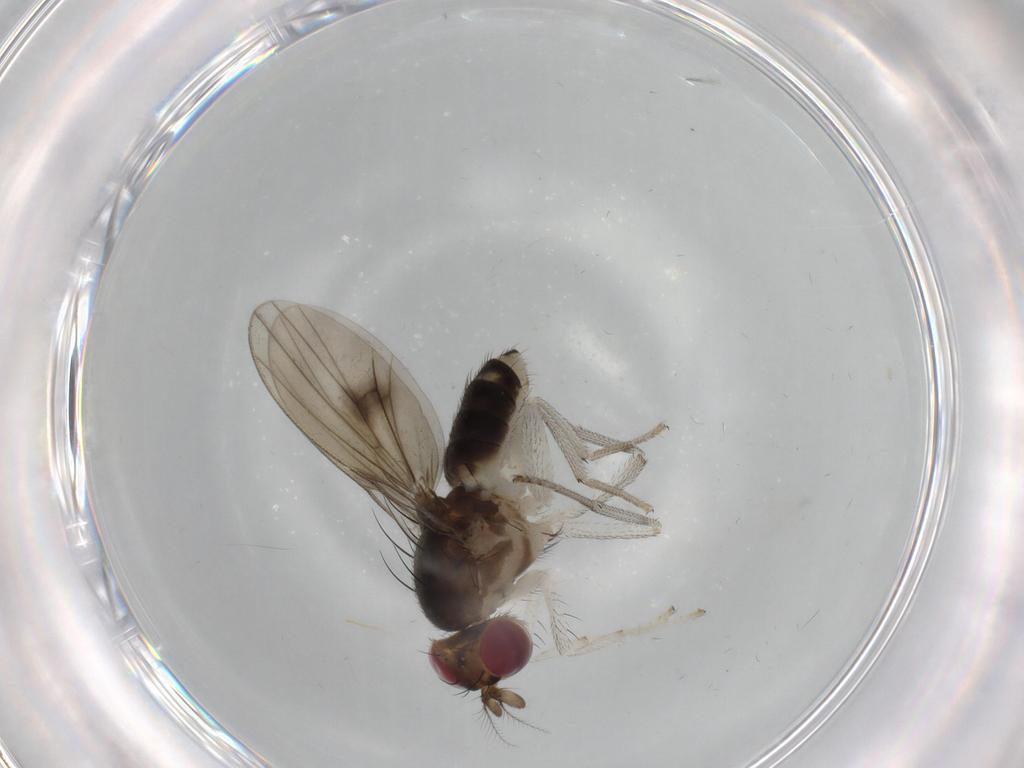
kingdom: Animalia
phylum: Arthropoda
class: Insecta
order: Diptera
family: Lauxaniidae
